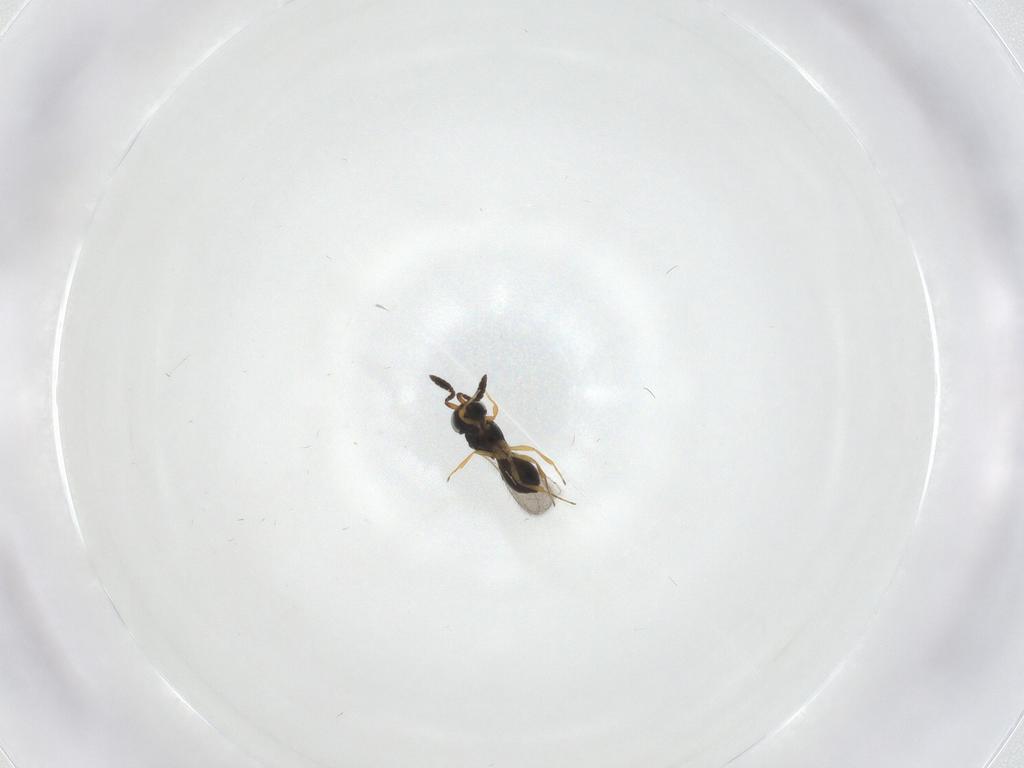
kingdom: Animalia
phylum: Arthropoda
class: Insecta
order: Hymenoptera
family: Scelionidae
